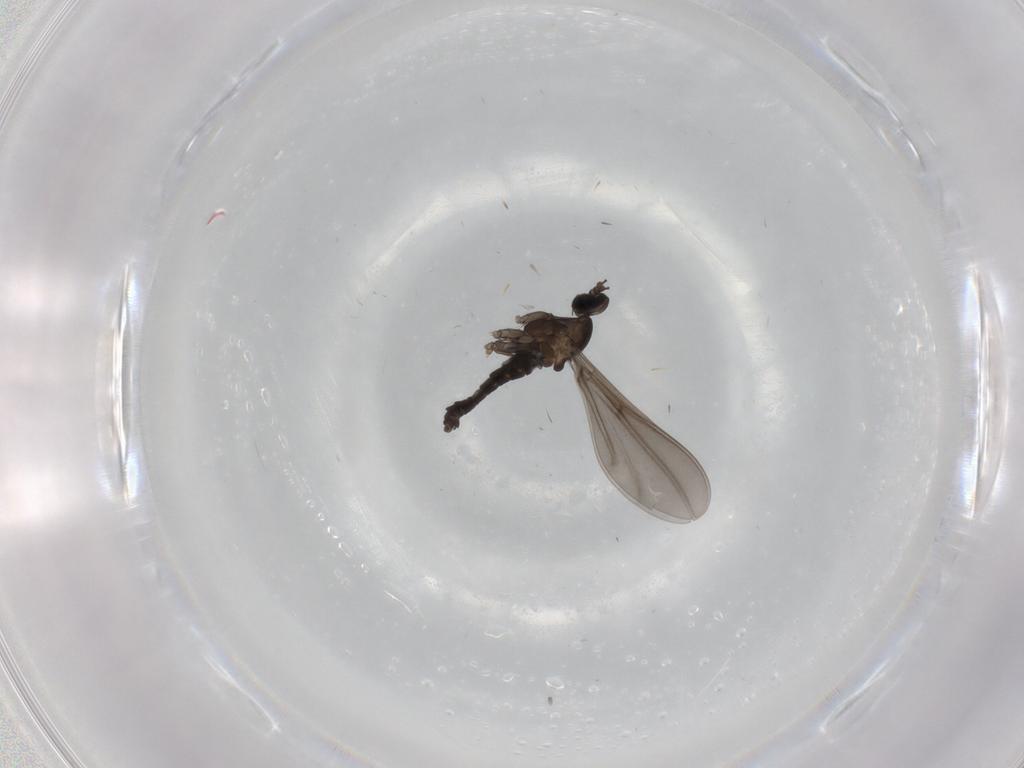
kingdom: Animalia
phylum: Arthropoda
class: Insecta
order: Diptera
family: Cecidomyiidae
